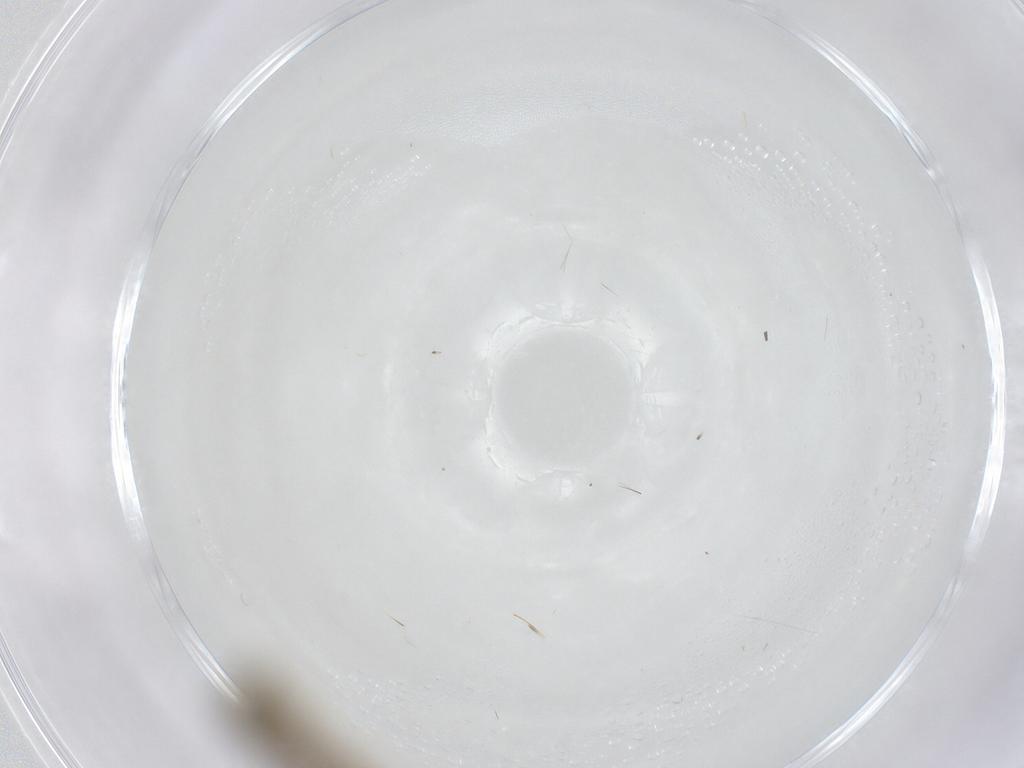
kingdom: Animalia
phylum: Arthropoda
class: Insecta
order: Diptera
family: Chironomidae
